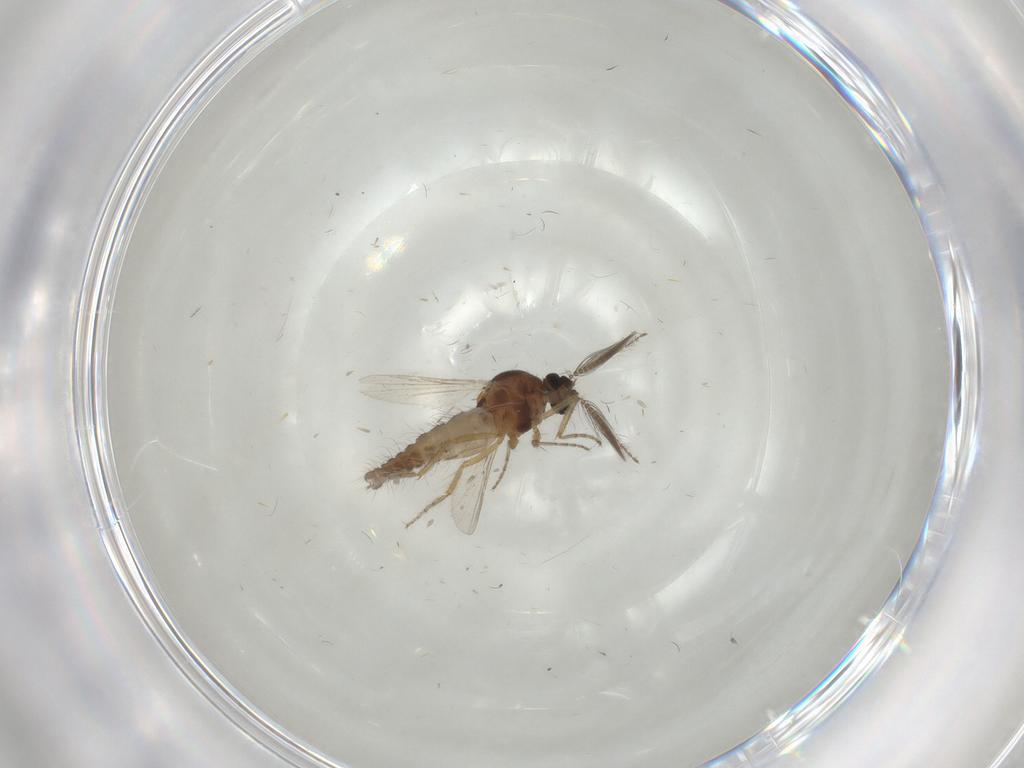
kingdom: Animalia
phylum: Arthropoda
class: Insecta
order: Diptera
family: Ceratopogonidae
